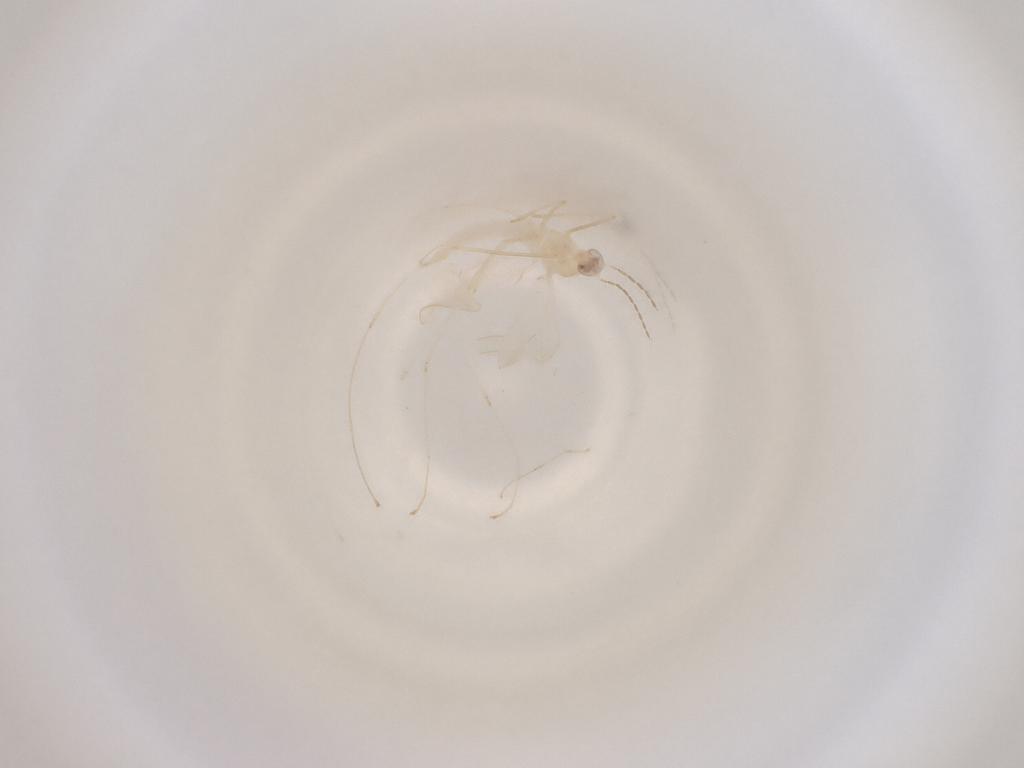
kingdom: Animalia
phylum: Arthropoda
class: Insecta
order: Diptera
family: Cecidomyiidae
